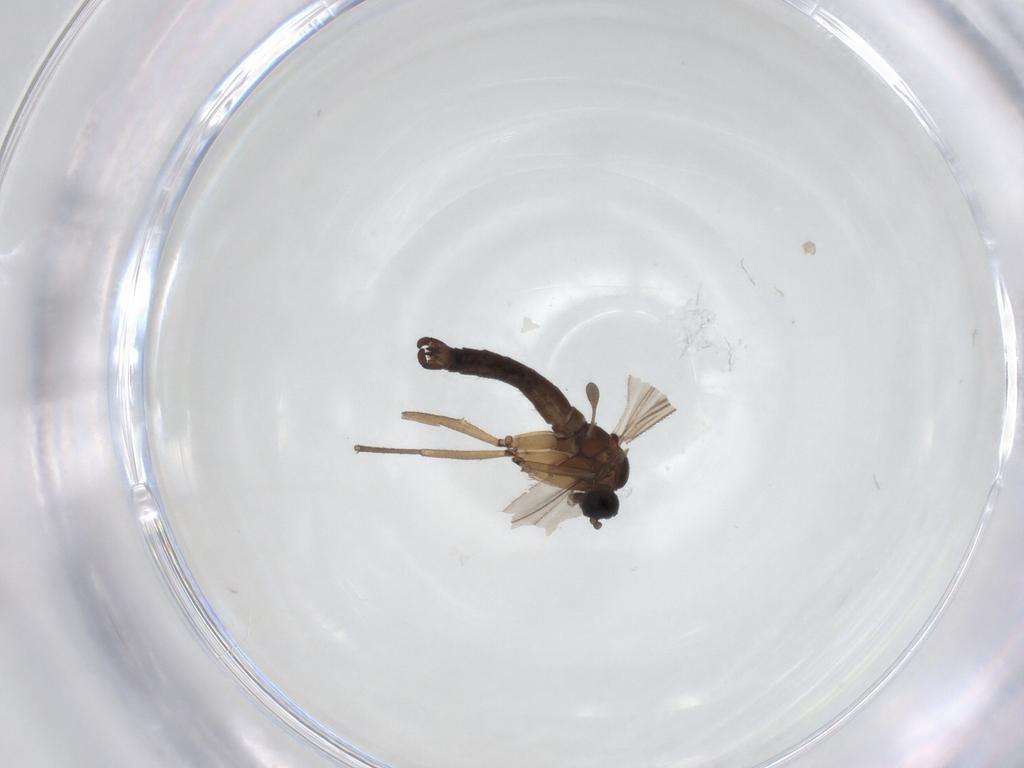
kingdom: Animalia
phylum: Arthropoda
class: Insecta
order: Diptera
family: Sciaridae
